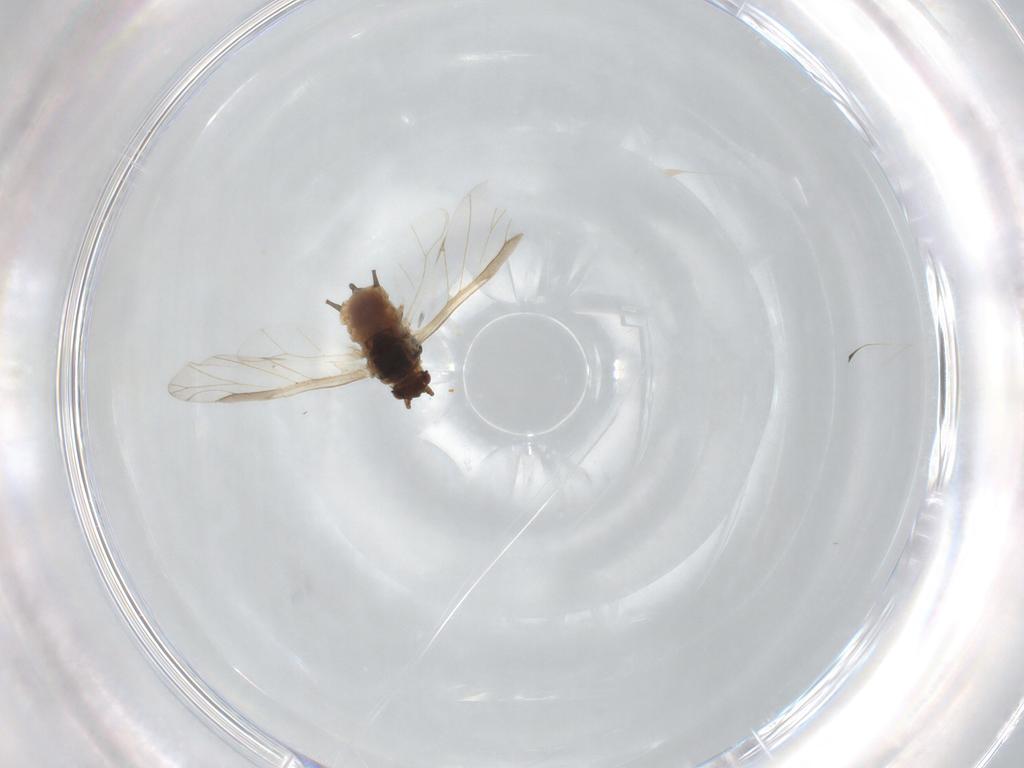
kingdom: Animalia
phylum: Arthropoda
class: Insecta
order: Hemiptera
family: Aphididae
